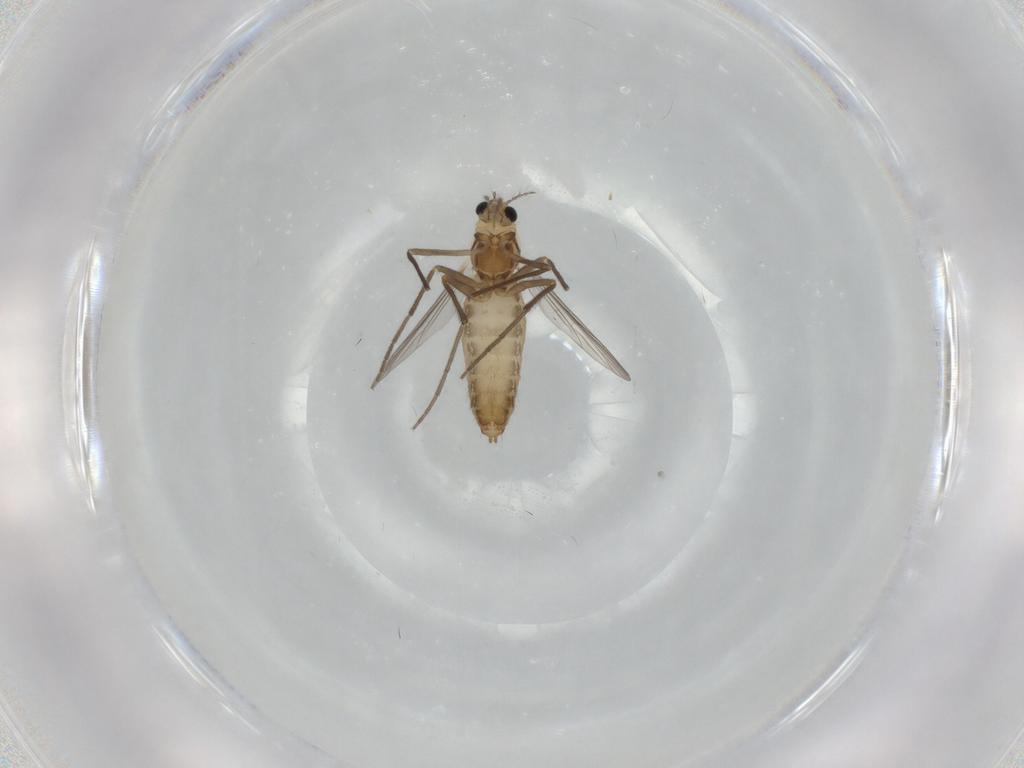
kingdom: Animalia
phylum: Arthropoda
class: Insecta
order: Diptera
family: Chironomidae
